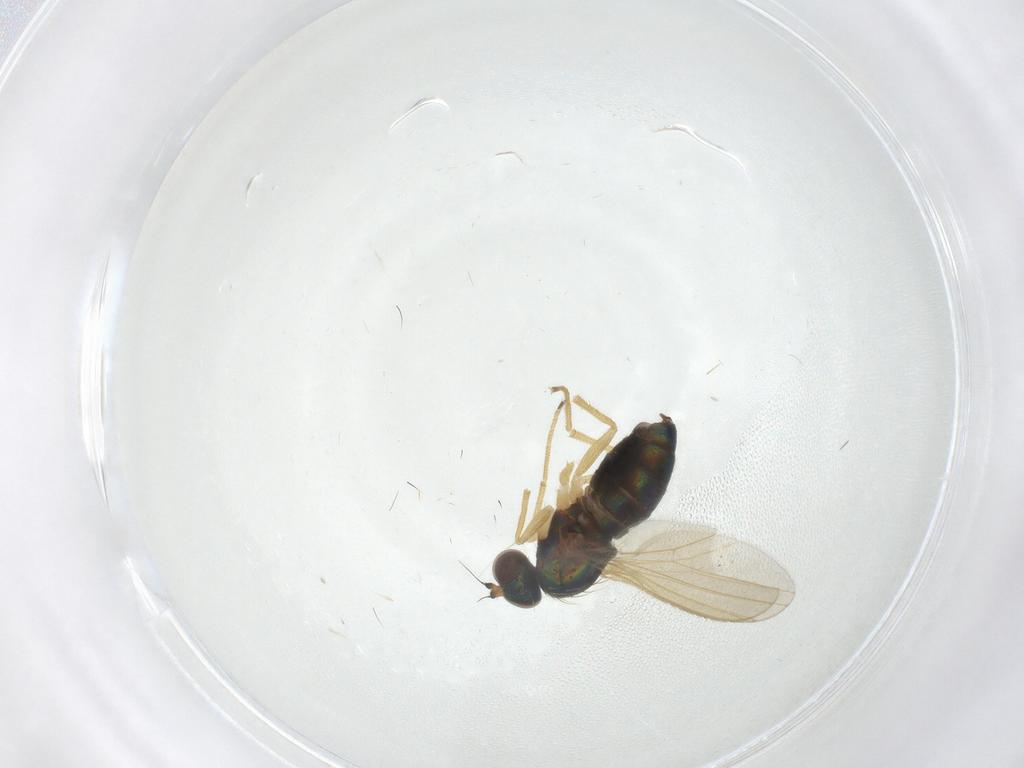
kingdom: Animalia
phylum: Arthropoda
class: Insecta
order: Diptera
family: Dolichopodidae
